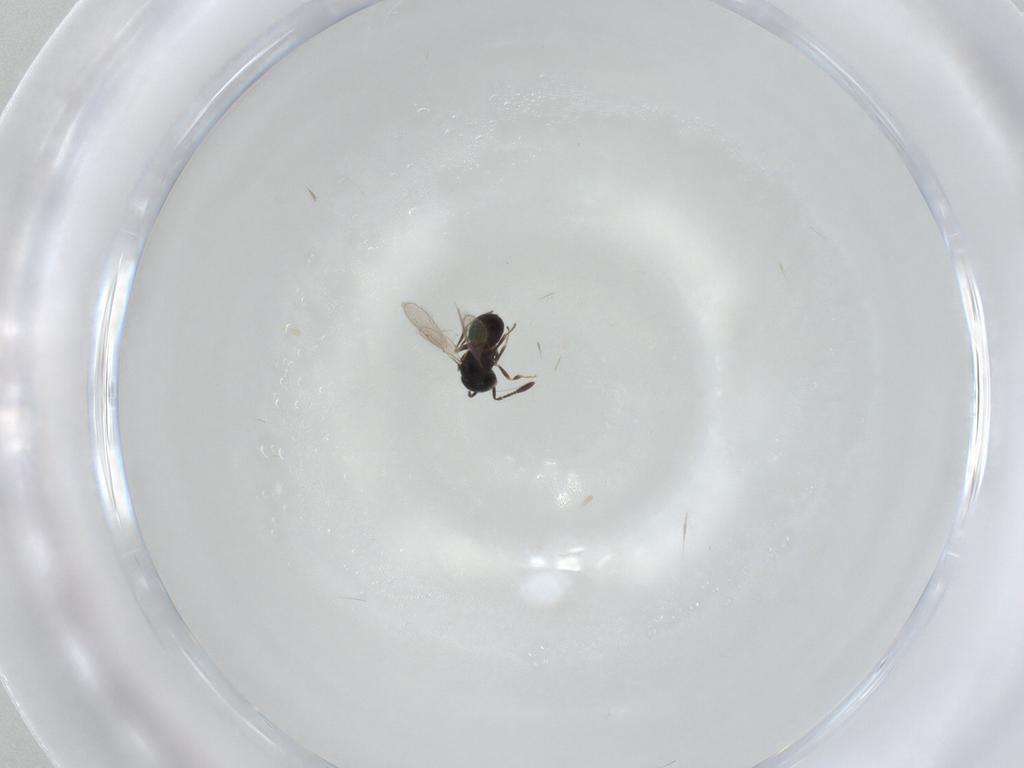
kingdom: Animalia
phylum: Arthropoda
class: Insecta
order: Hymenoptera
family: Scelionidae
